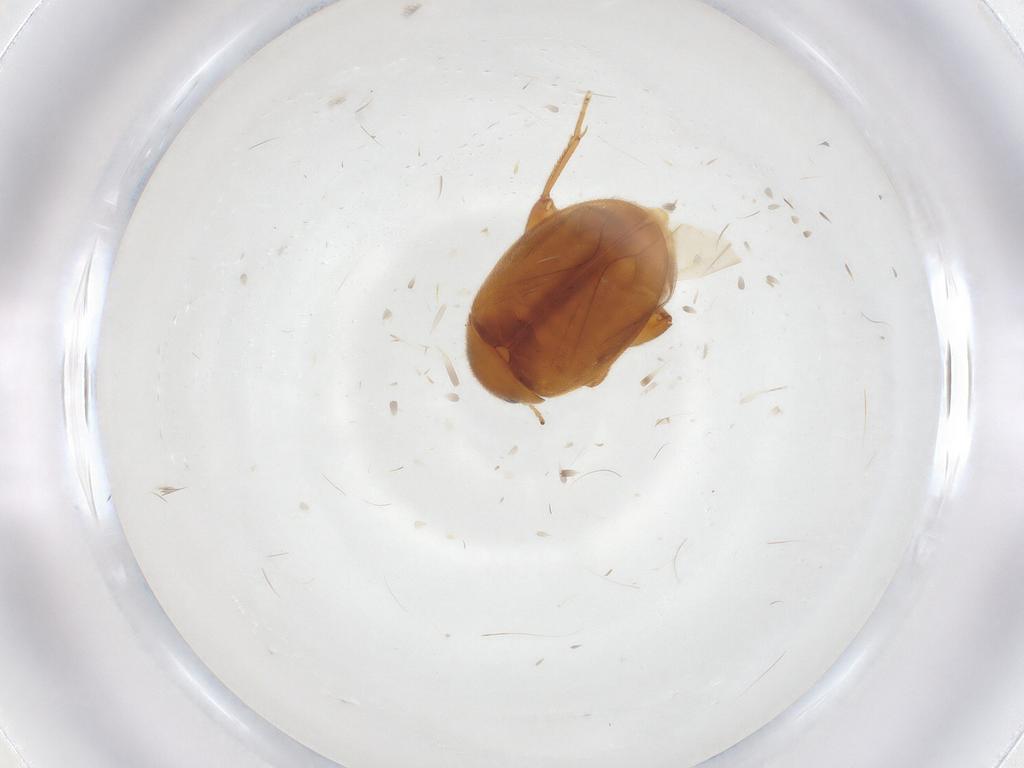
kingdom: Animalia
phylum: Arthropoda
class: Insecta
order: Coleoptera
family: Scirtidae
